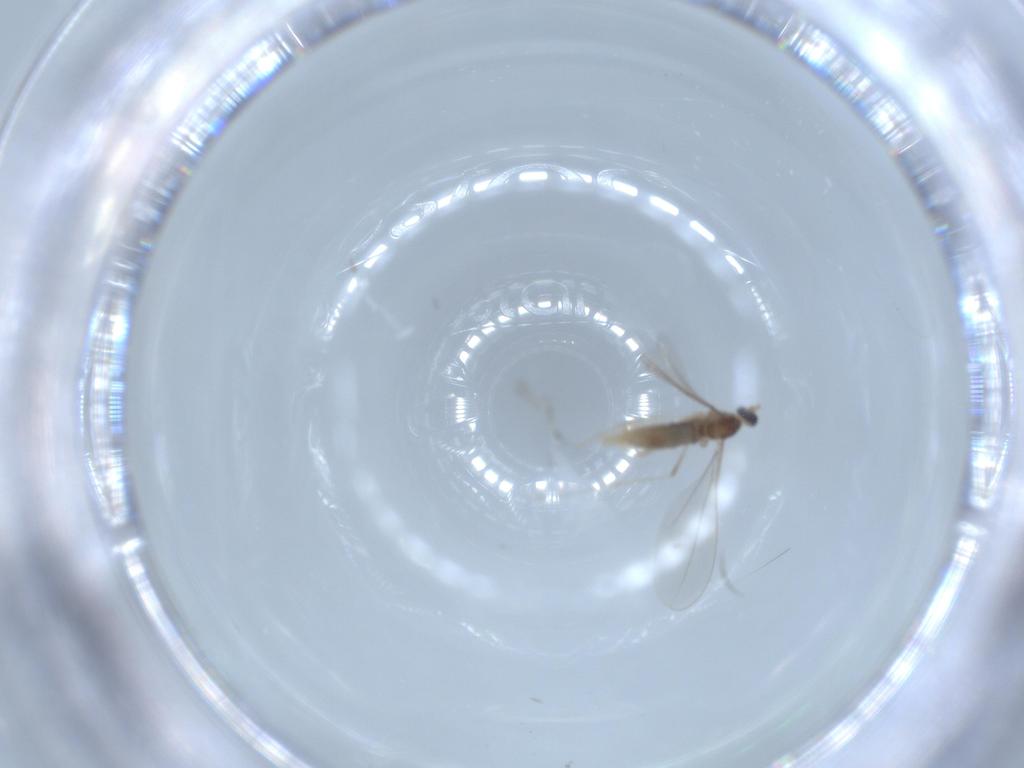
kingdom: Animalia
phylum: Arthropoda
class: Insecta
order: Diptera
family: Cecidomyiidae
